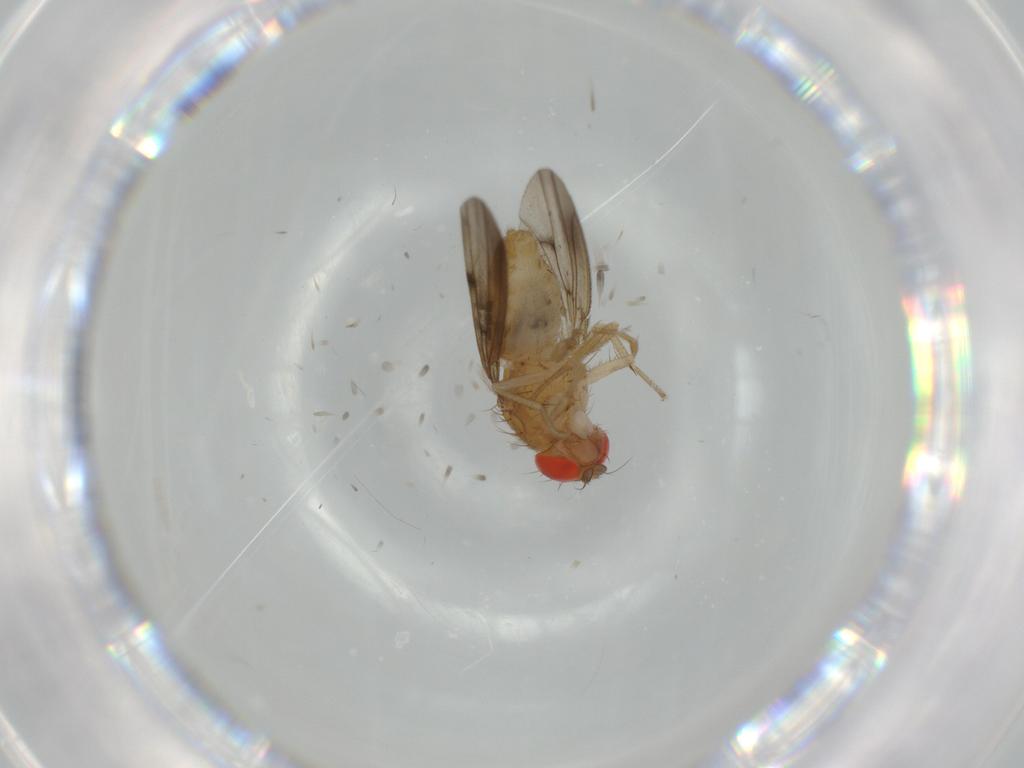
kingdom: Animalia
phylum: Arthropoda
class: Insecta
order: Diptera
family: Drosophilidae
